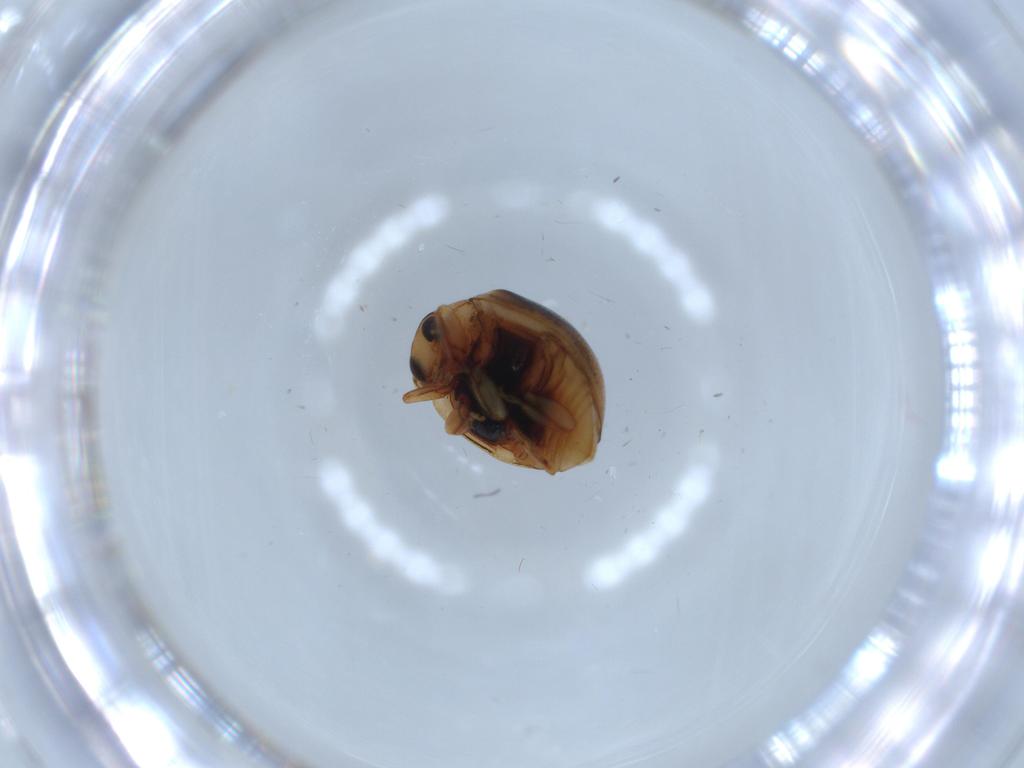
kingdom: Animalia
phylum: Arthropoda
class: Insecta
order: Coleoptera
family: Coccinellidae
